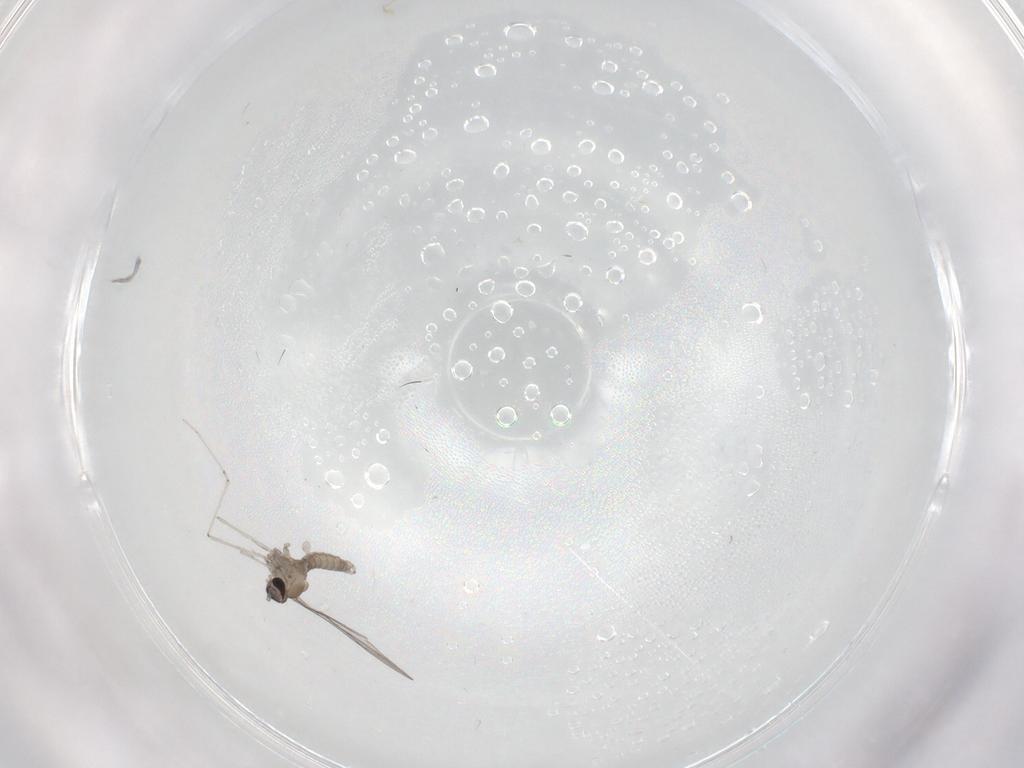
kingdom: Animalia
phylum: Arthropoda
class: Insecta
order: Diptera
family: Cecidomyiidae
